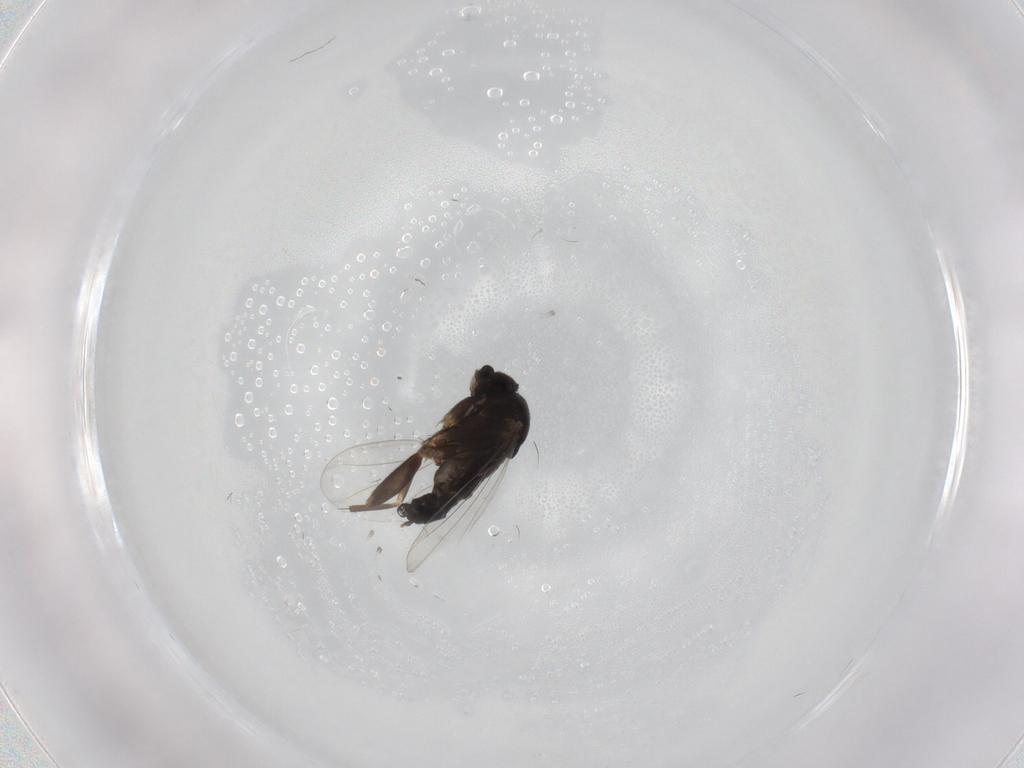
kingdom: Animalia
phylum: Arthropoda
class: Insecta
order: Diptera
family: Phoridae
